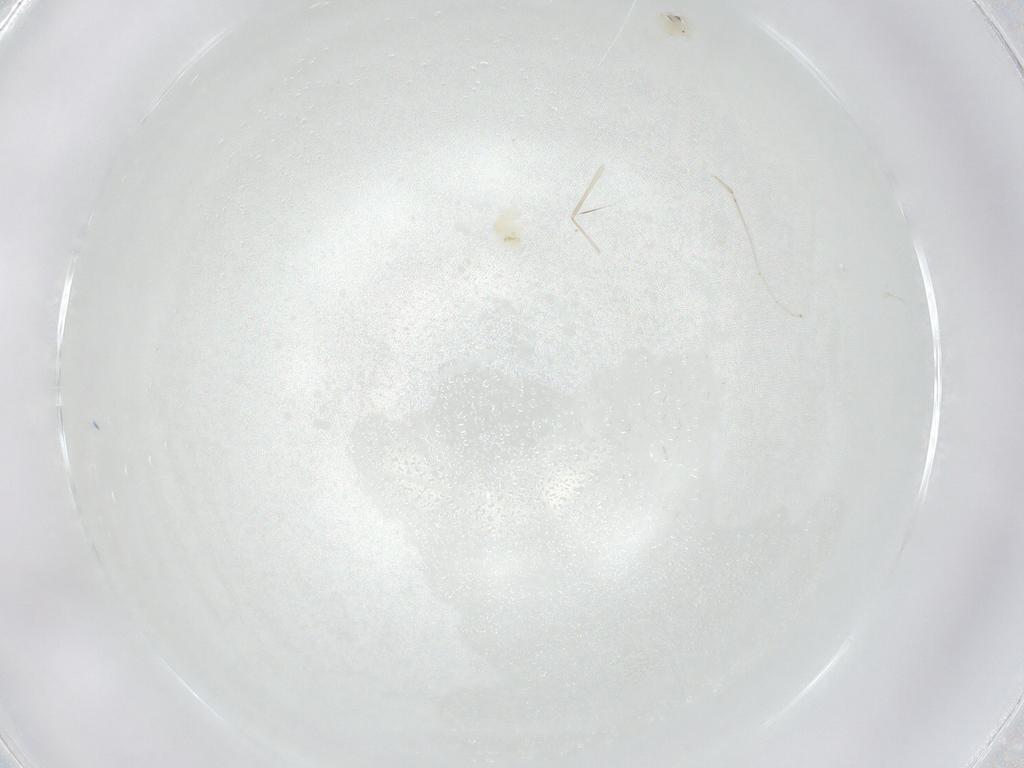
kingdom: Animalia
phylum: Arthropoda
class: Arachnida
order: Trombidiformes
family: Anystidae
